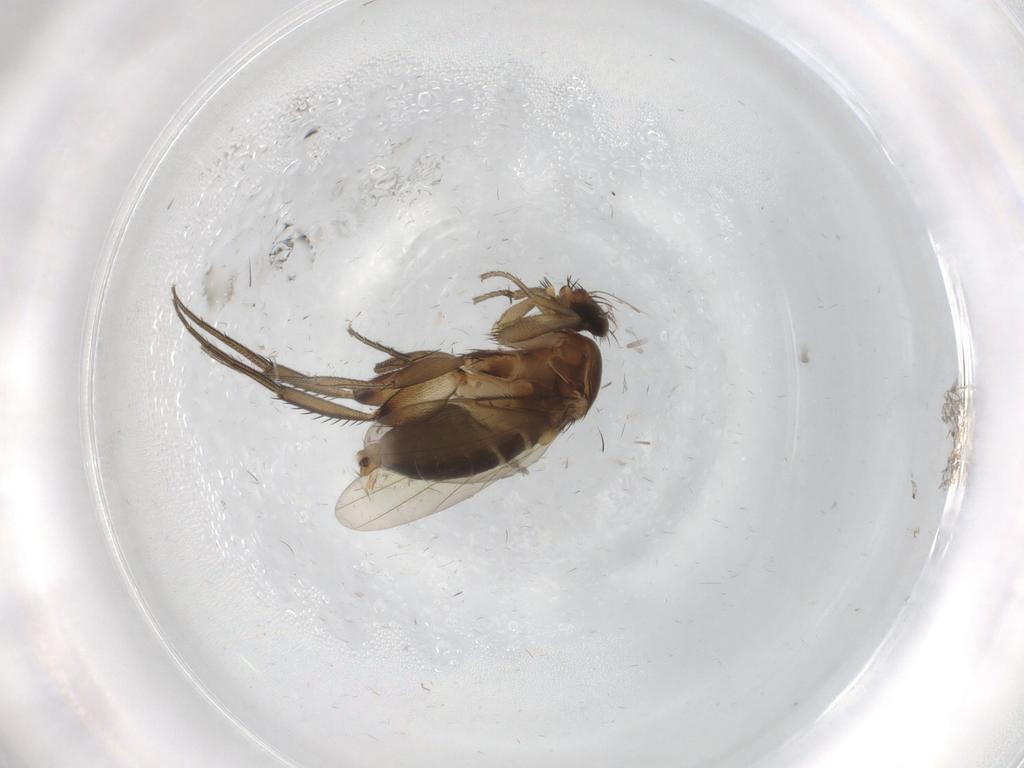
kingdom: Animalia
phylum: Arthropoda
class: Insecta
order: Diptera
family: Phoridae
